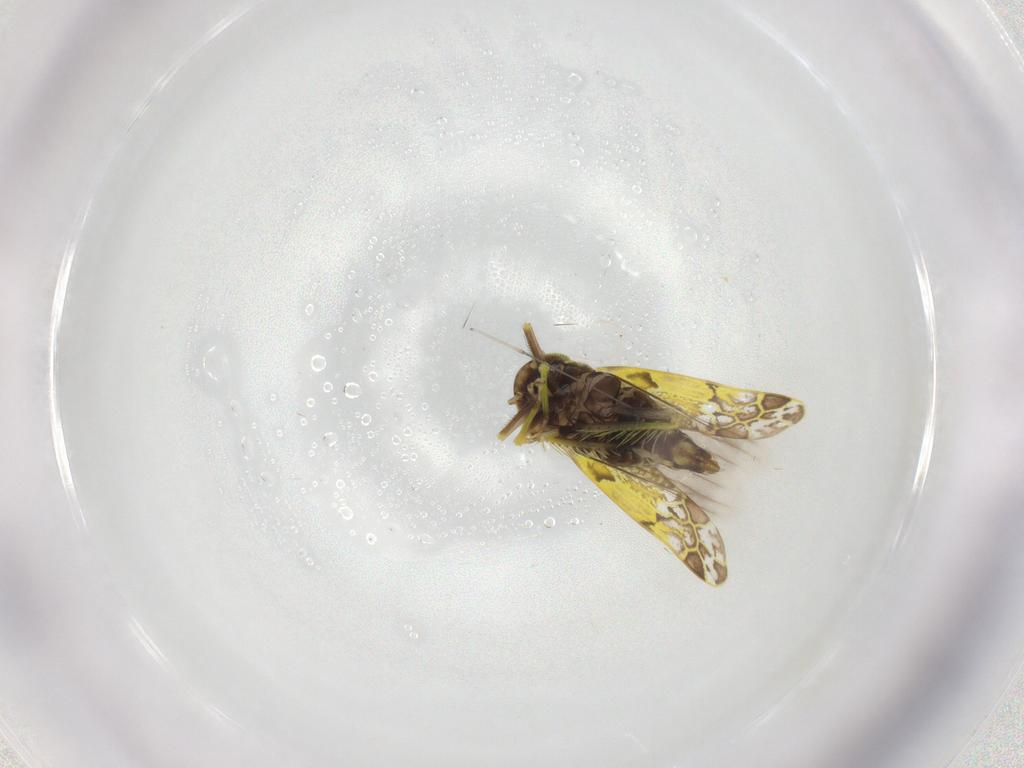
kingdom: Animalia
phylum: Arthropoda
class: Insecta
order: Hemiptera
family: Cicadellidae
